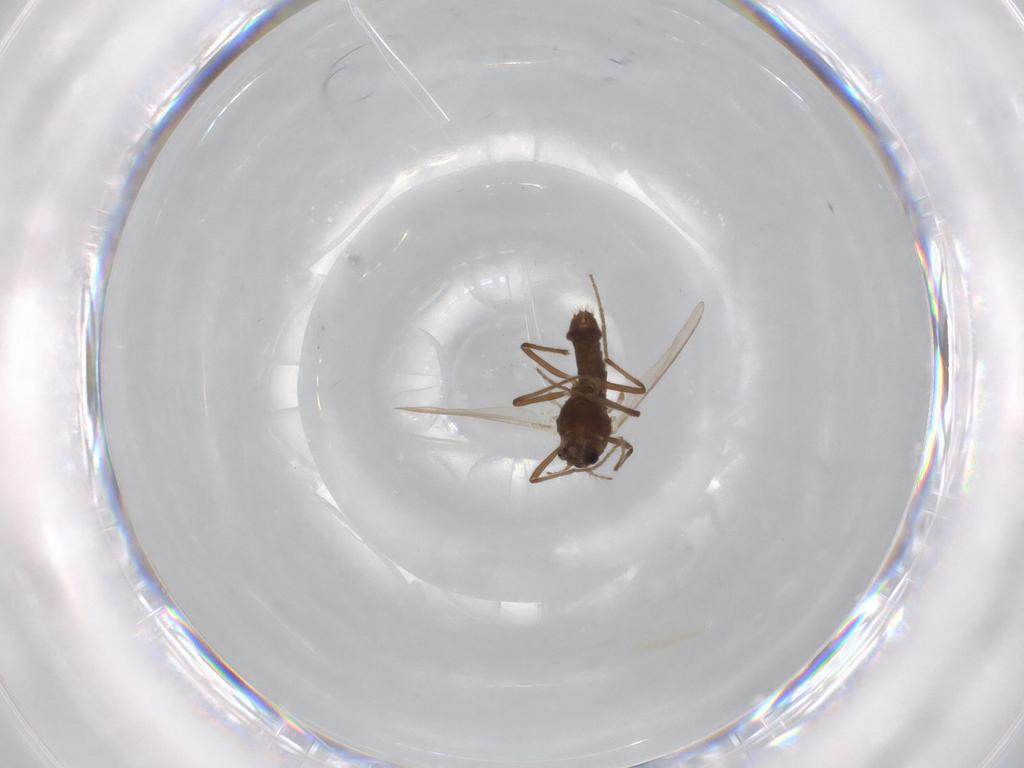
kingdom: Animalia
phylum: Arthropoda
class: Insecta
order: Diptera
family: Chironomidae
